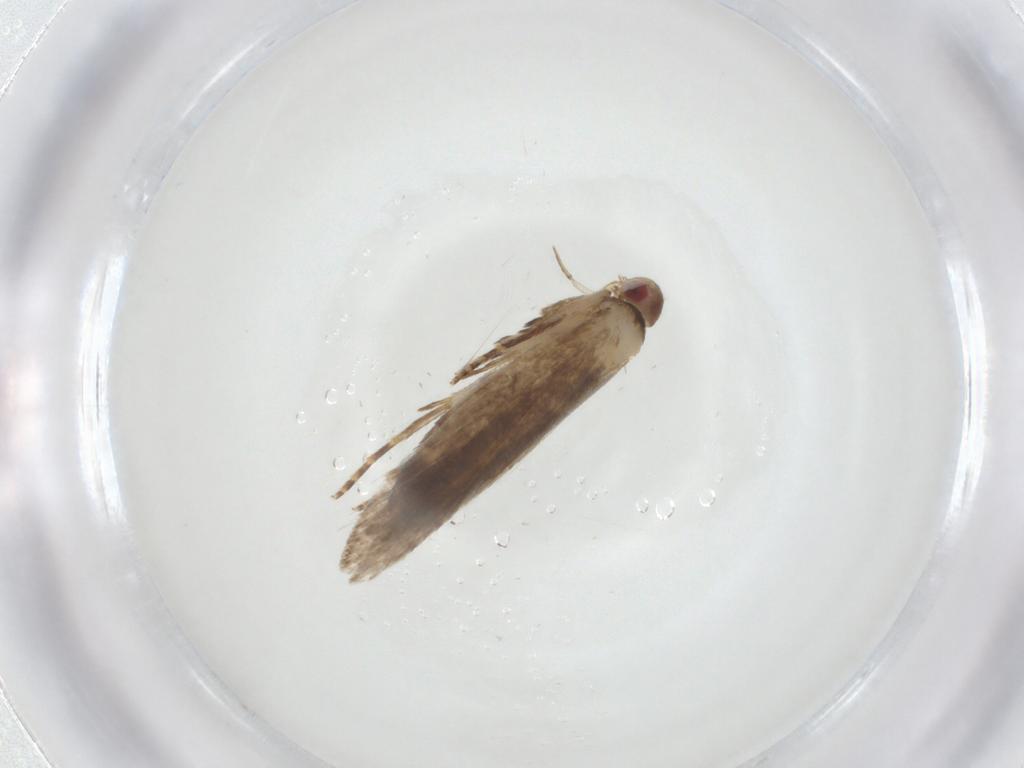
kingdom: Animalia
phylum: Arthropoda
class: Insecta
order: Lepidoptera
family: Gelechiidae
